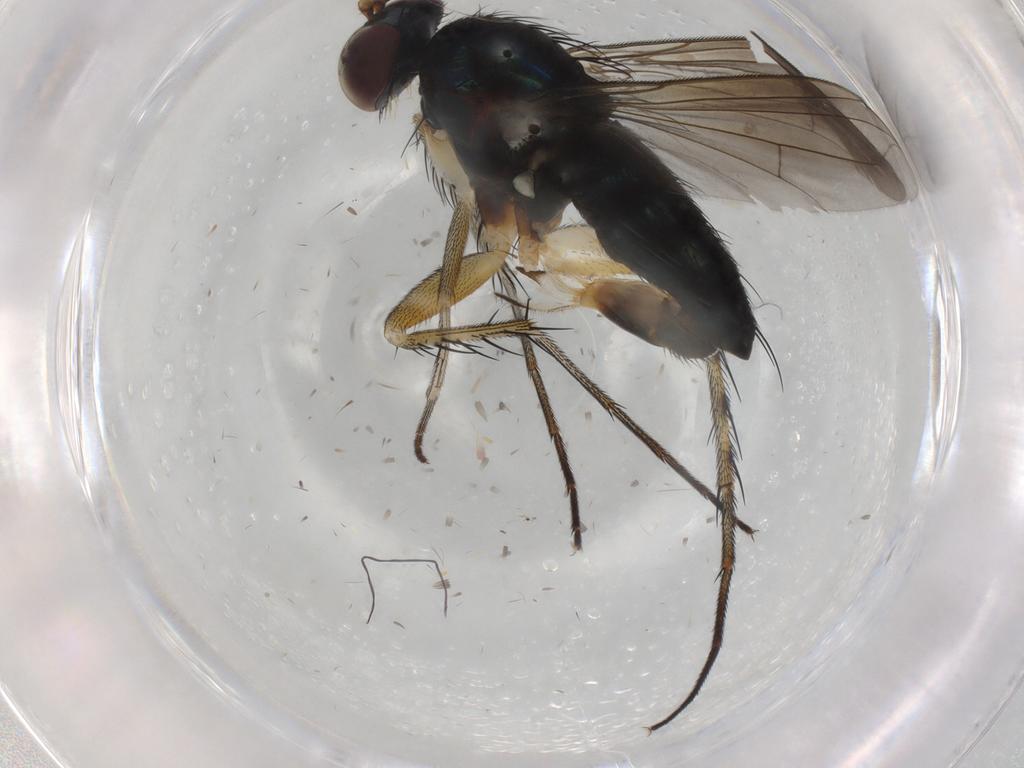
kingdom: Animalia
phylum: Arthropoda
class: Insecta
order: Diptera
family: Dolichopodidae
